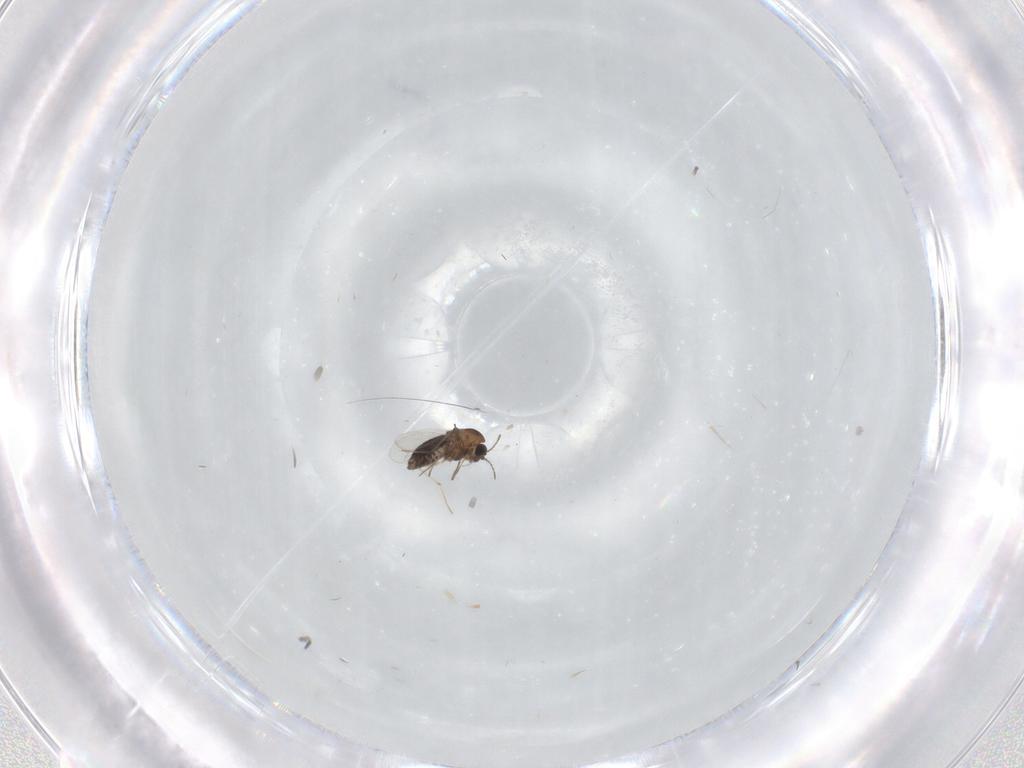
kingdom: Animalia
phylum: Arthropoda
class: Insecta
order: Diptera
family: Chironomidae
